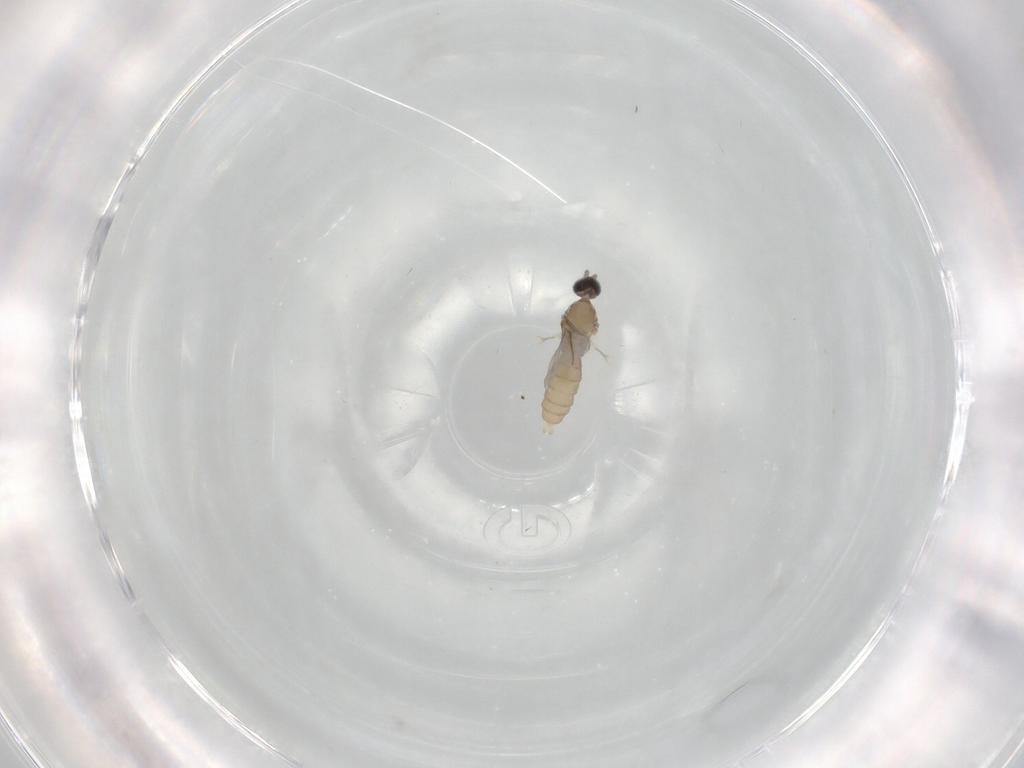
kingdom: Animalia
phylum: Arthropoda
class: Insecta
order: Diptera
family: Cecidomyiidae
